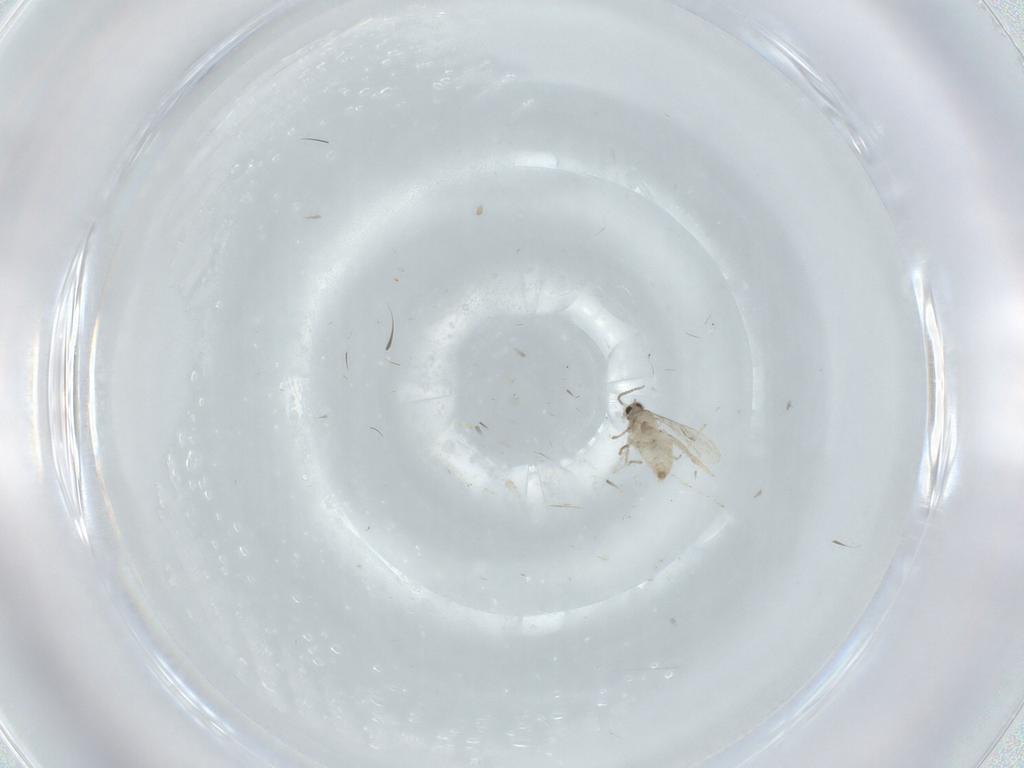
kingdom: Animalia
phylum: Arthropoda
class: Insecta
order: Diptera
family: Cecidomyiidae
